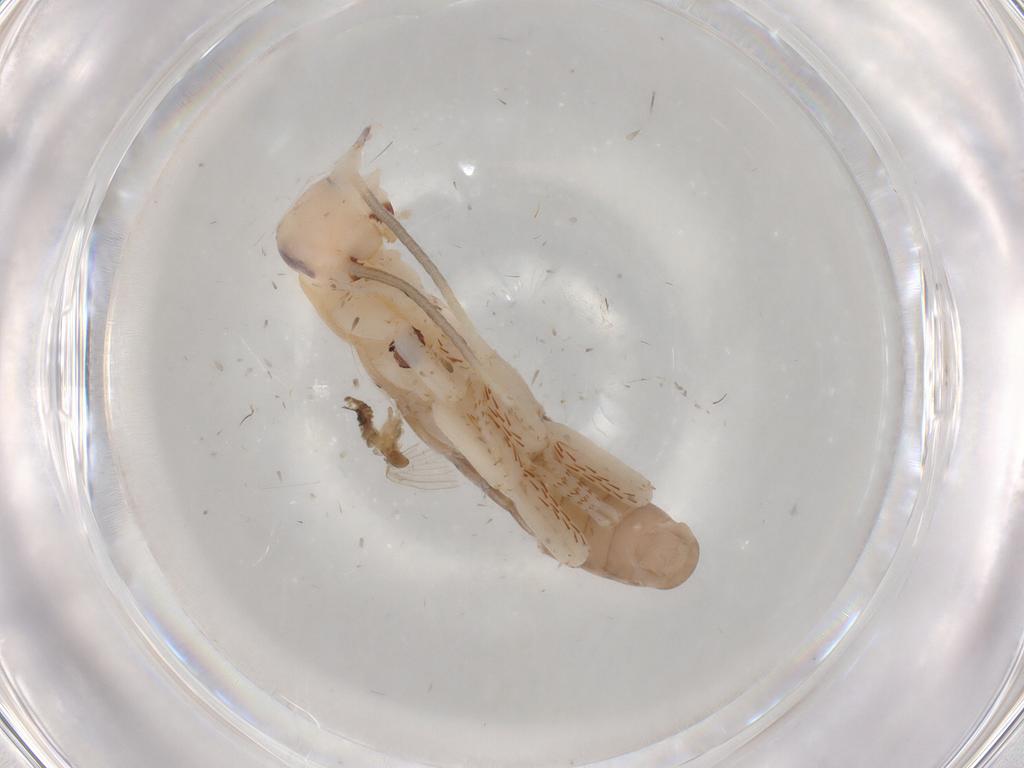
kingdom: Animalia
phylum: Arthropoda
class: Insecta
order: Blattodea
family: Blaberidae
